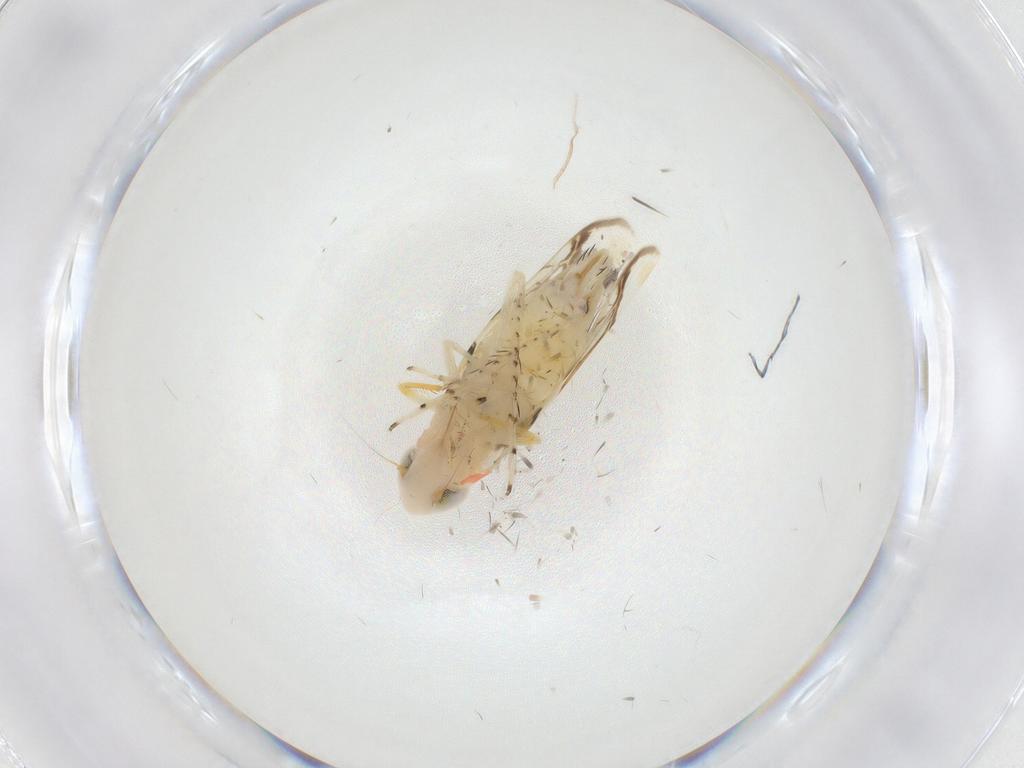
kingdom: Animalia
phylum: Arthropoda
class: Insecta
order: Hemiptera
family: Cicadellidae
